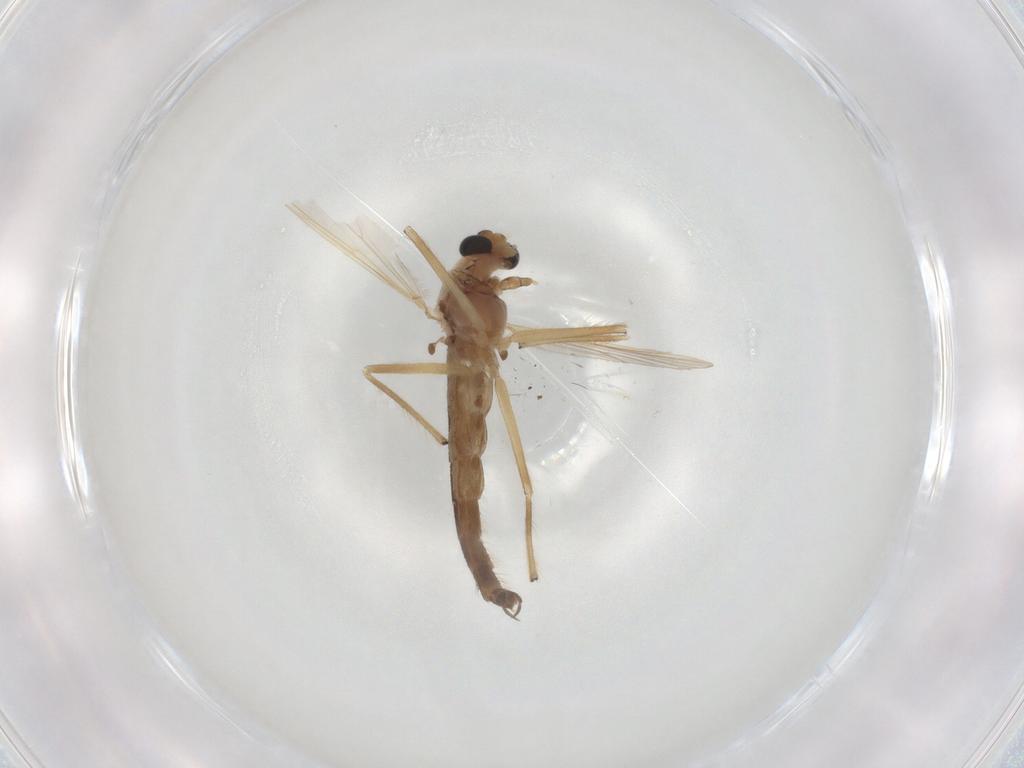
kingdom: Animalia
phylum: Arthropoda
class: Insecta
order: Diptera
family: Chironomidae
